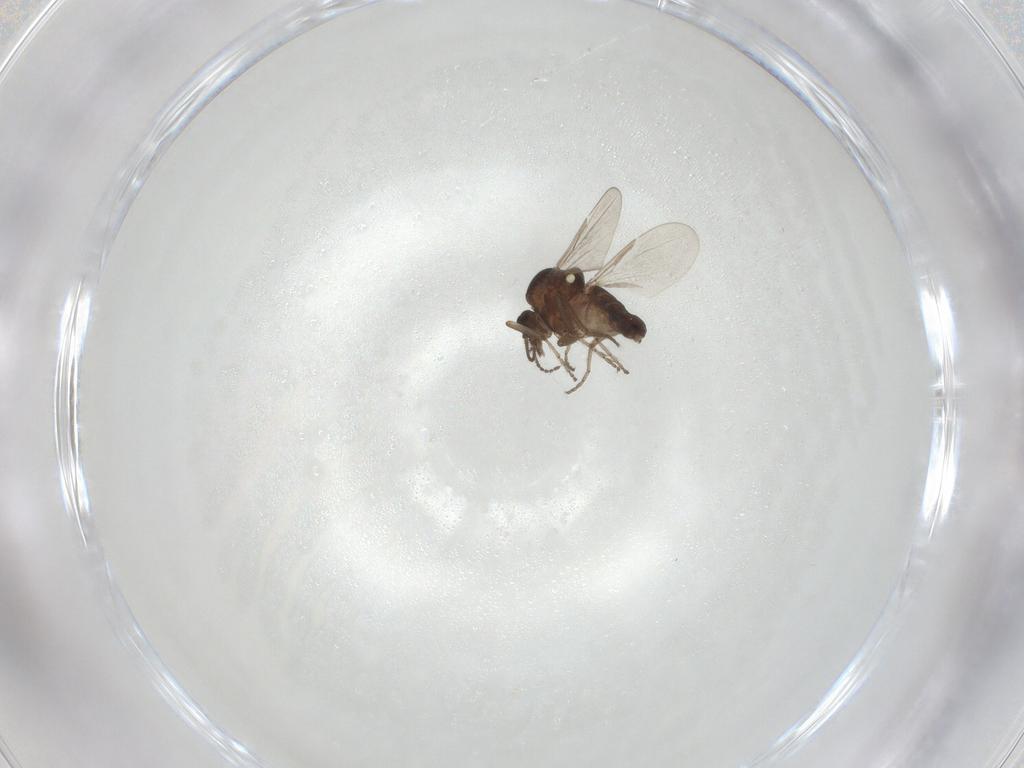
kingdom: Animalia
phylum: Arthropoda
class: Insecta
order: Diptera
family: Ceratopogonidae
